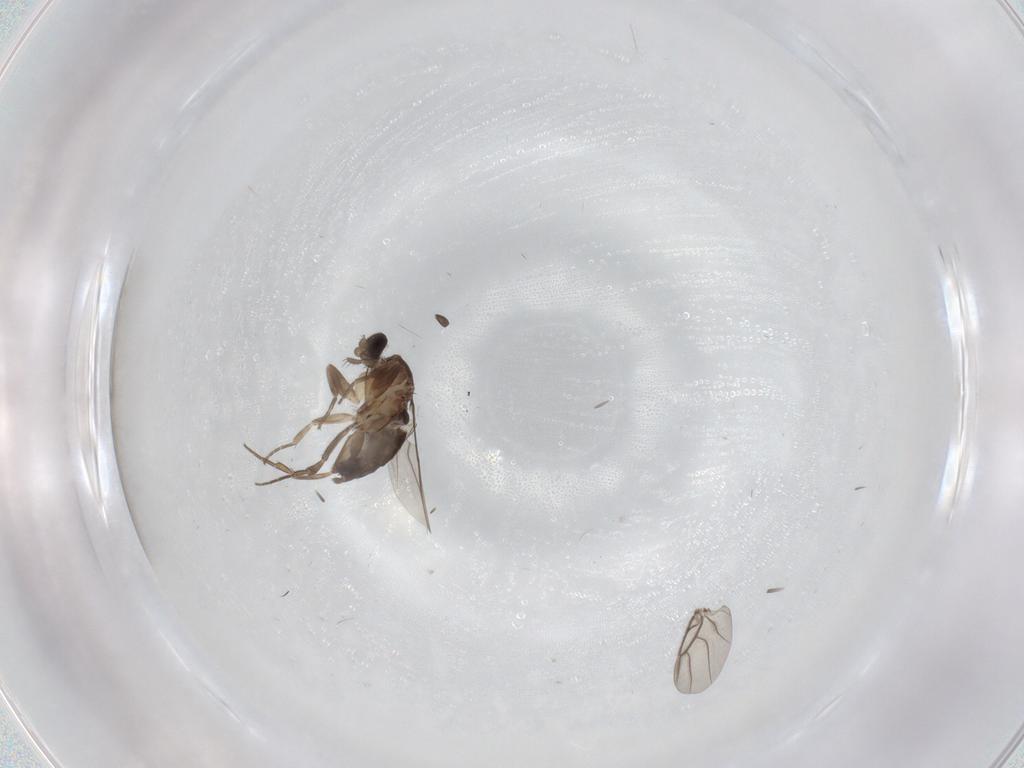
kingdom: Animalia
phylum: Arthropoda
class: Insecta
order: Diptera
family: Phoridae
